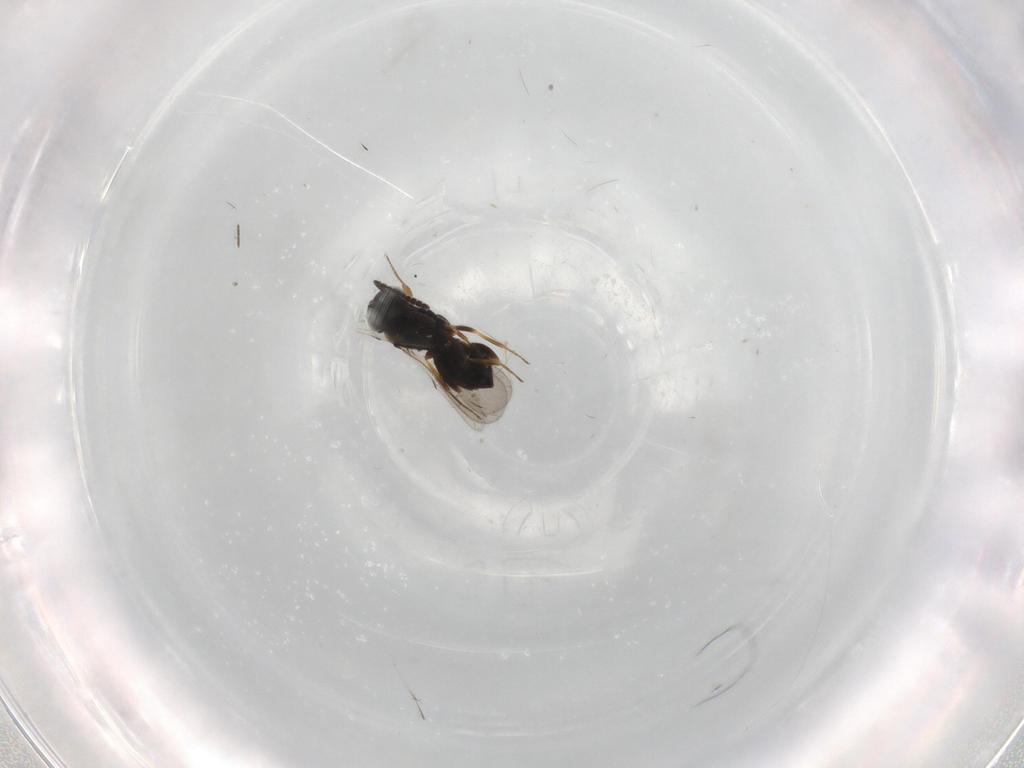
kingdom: Animalia
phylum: Arthropoda
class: Insecta
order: Hymenoptera
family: Scelionidae
